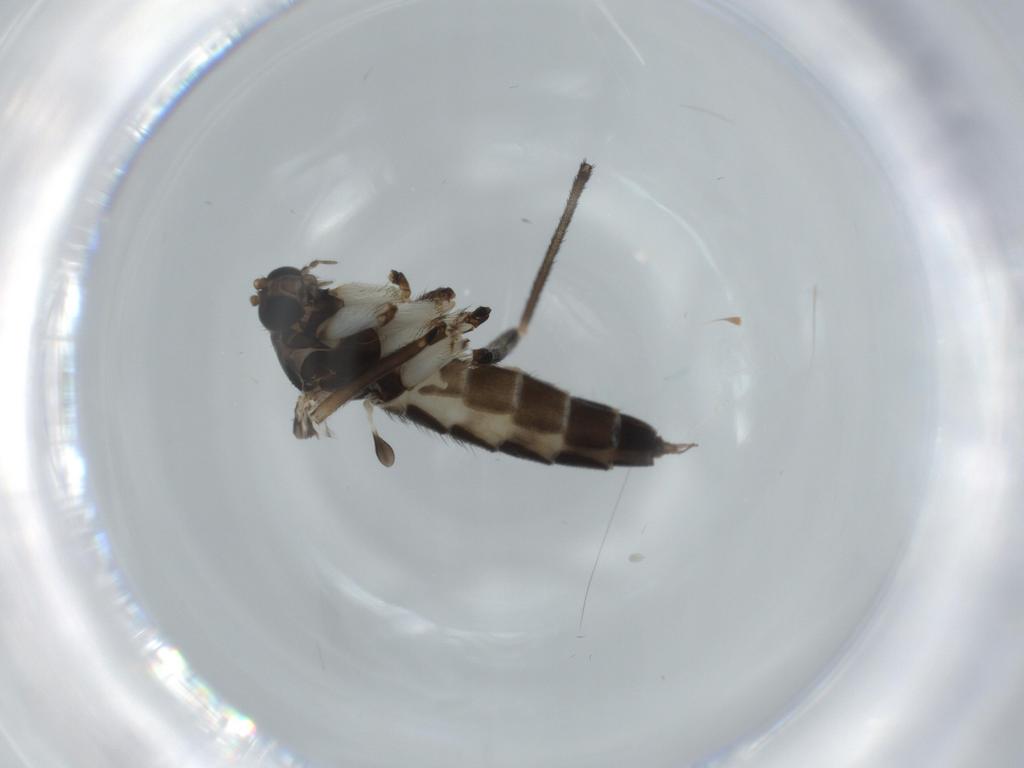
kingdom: Animalia
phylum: Arthropoda
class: Insecta
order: Diptera
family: Sciaridae
